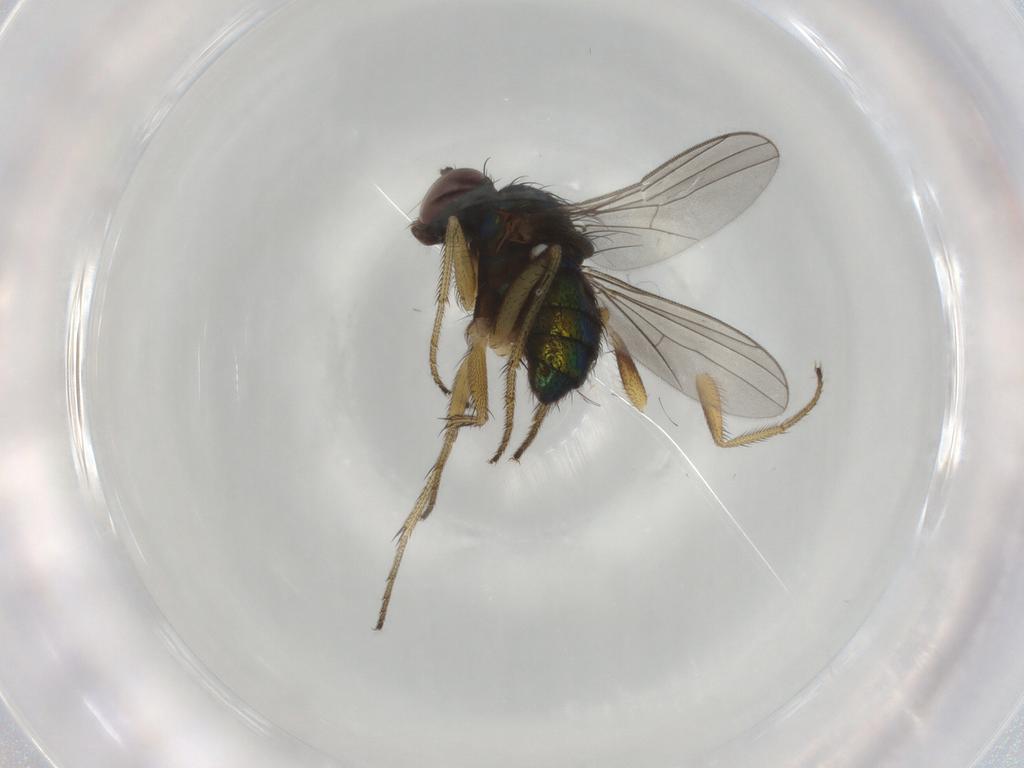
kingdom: Animalia
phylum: Arthropoda
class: Insecta
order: Diptera
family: Dolichopodidae
